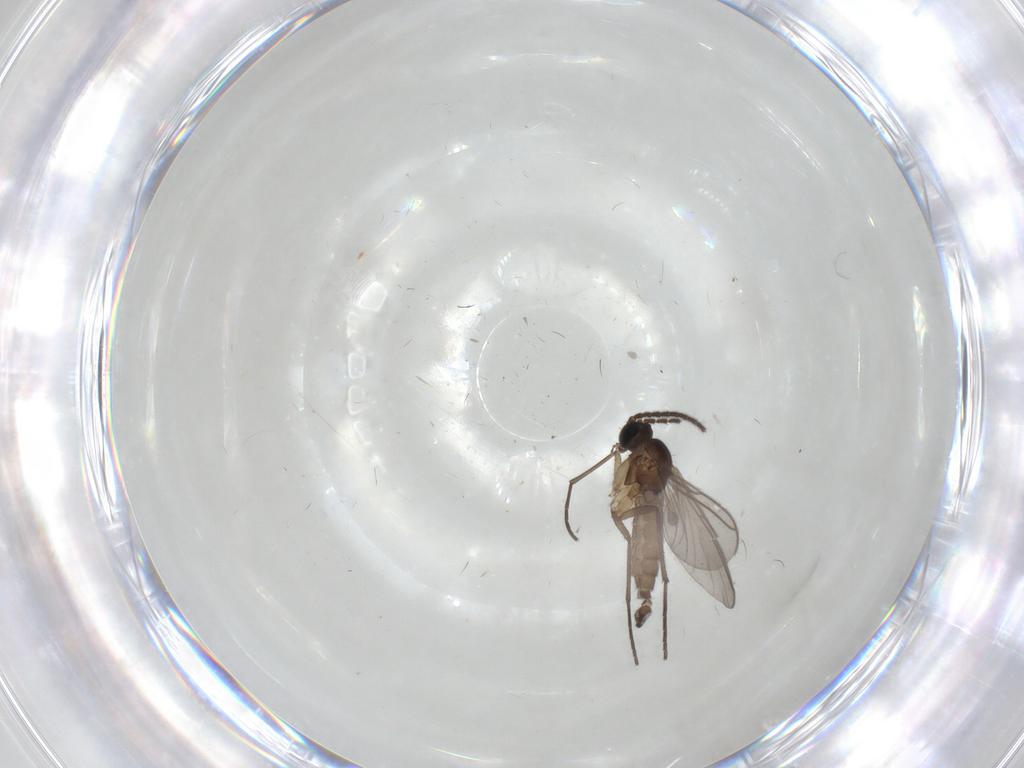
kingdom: Animalia
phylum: Arthropoda
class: Insecta
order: Diptera
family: Sciaridae
